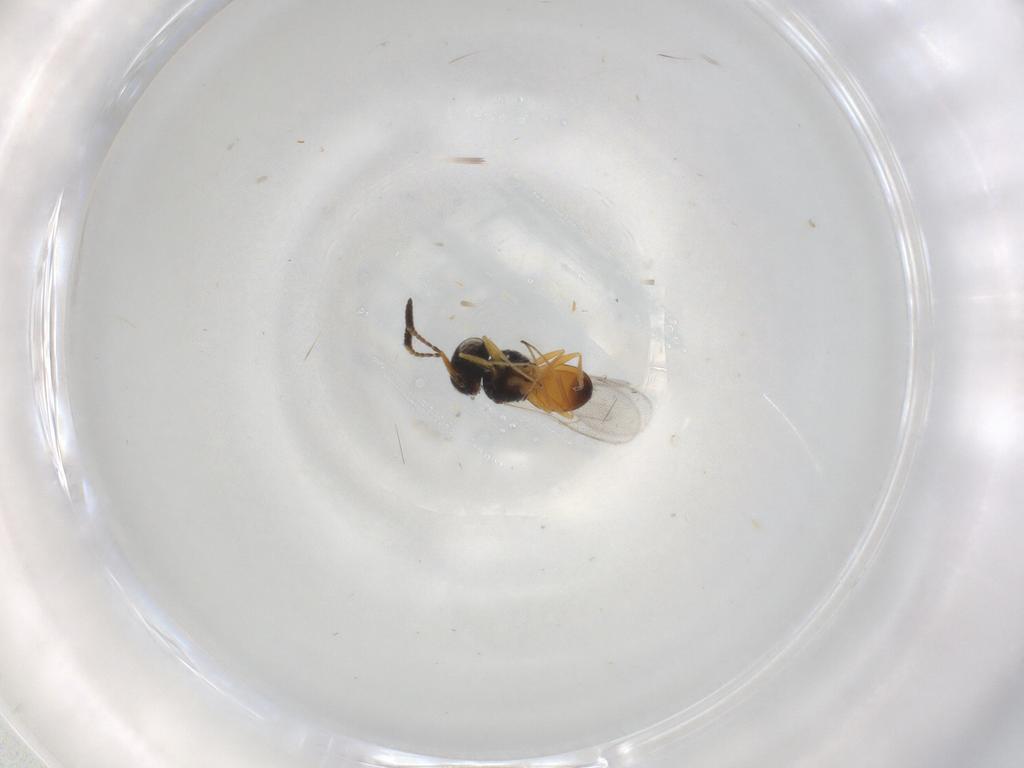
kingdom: Animalia
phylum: Arthropoda
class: Insecta
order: Hymenoptera
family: Scelionidae
